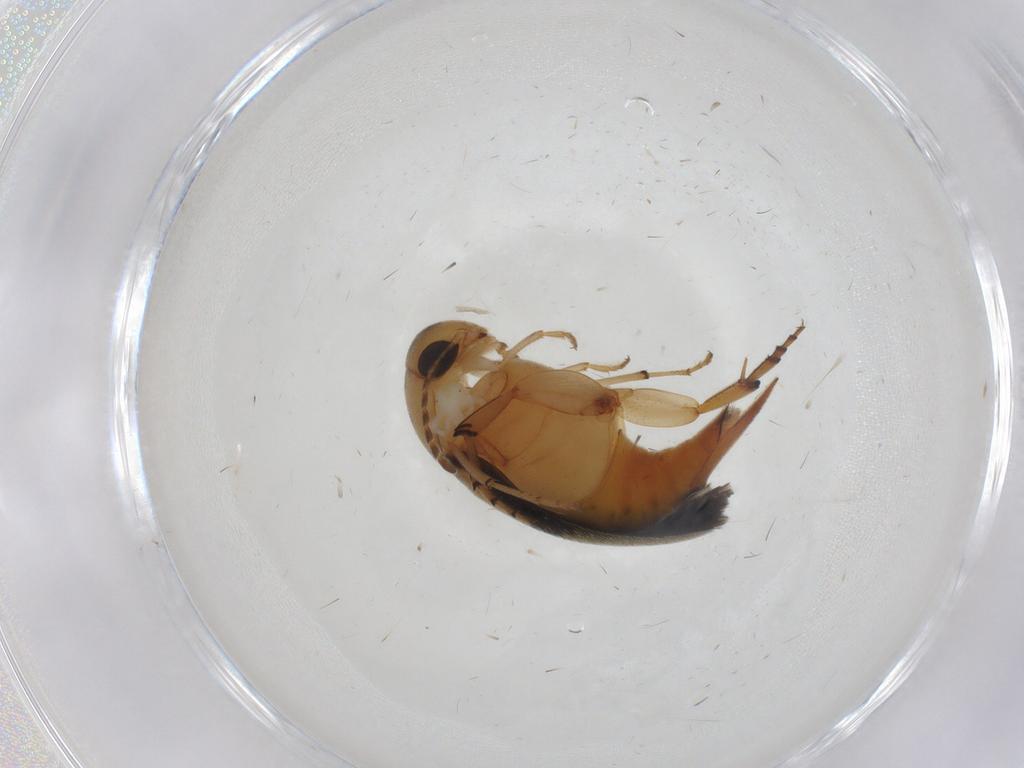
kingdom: Animalia
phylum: Arthropoda
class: Insecta
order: Coleoptera
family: Mordellidae
